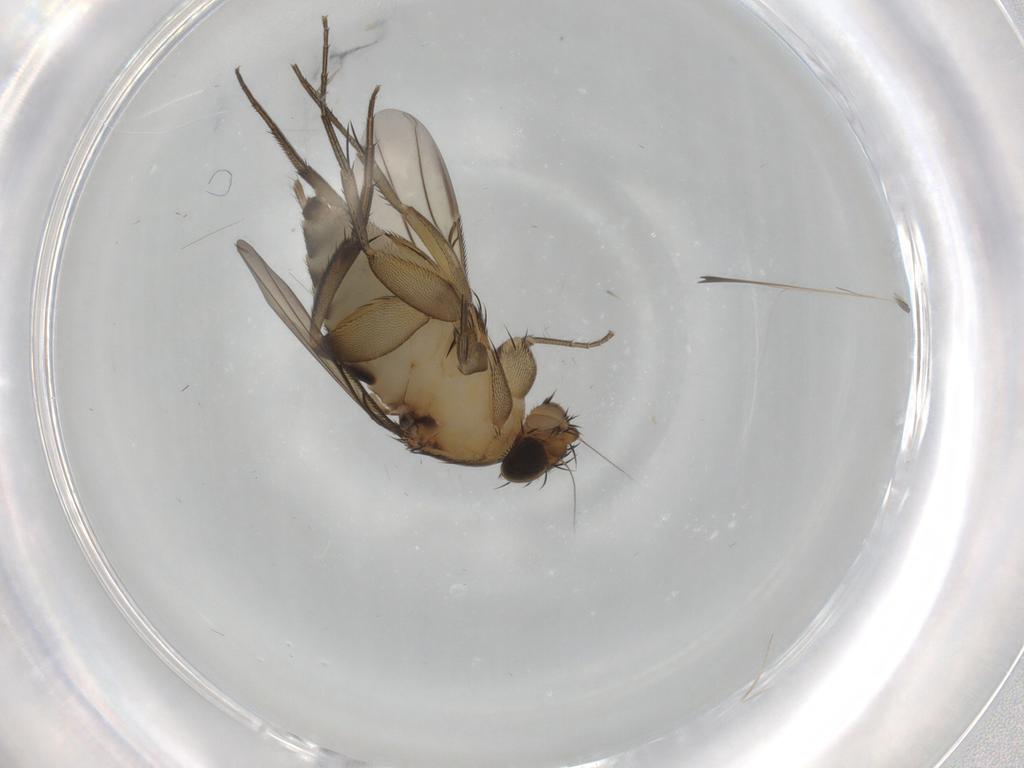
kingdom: Animalia
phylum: Arthropoda
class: Insecta
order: Diptera
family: Phoridae
